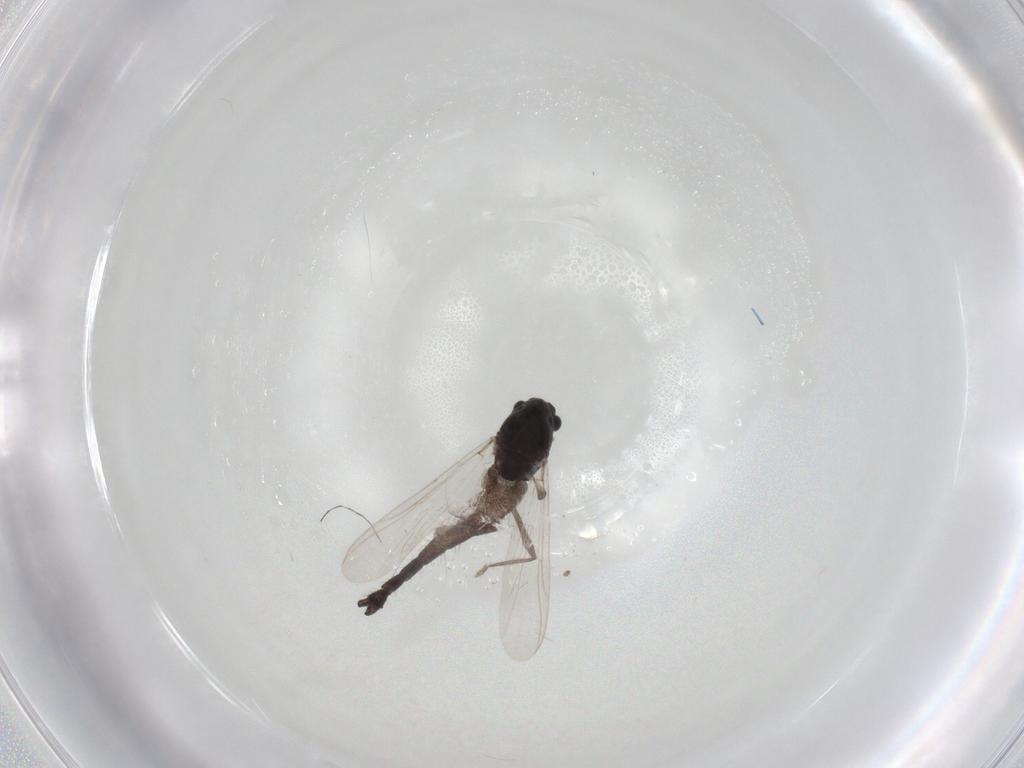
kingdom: Animalia
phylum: Arthropoda
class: Insecta
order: Diptera
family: Chironomidae
